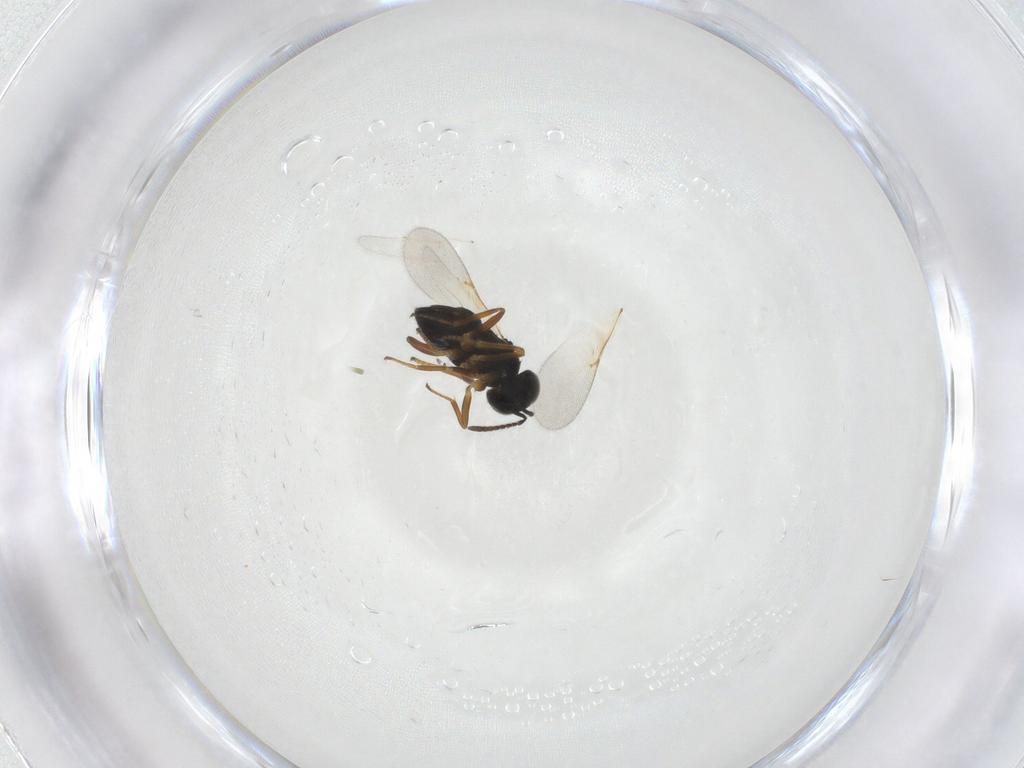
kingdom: Animalia
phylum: Arthropoda
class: Insecta
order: Hymenoptera
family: Encyrtidae
